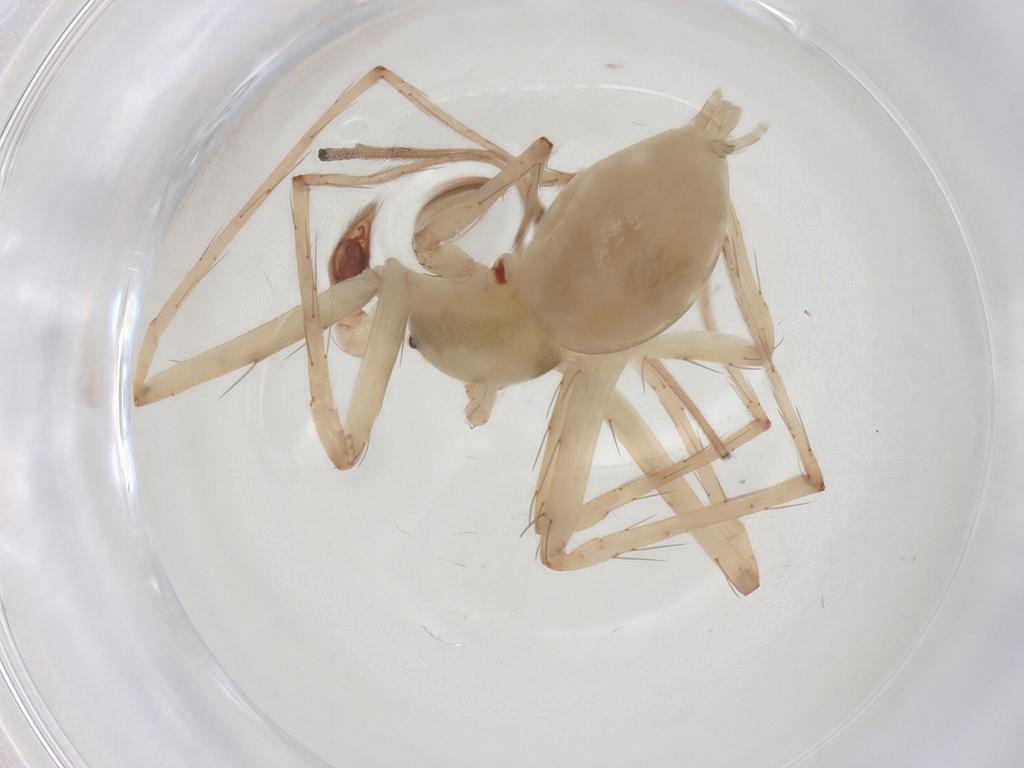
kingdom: Animalia
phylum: Arthropoda
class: Arachnida
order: Araneae
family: Anyphaenidae
